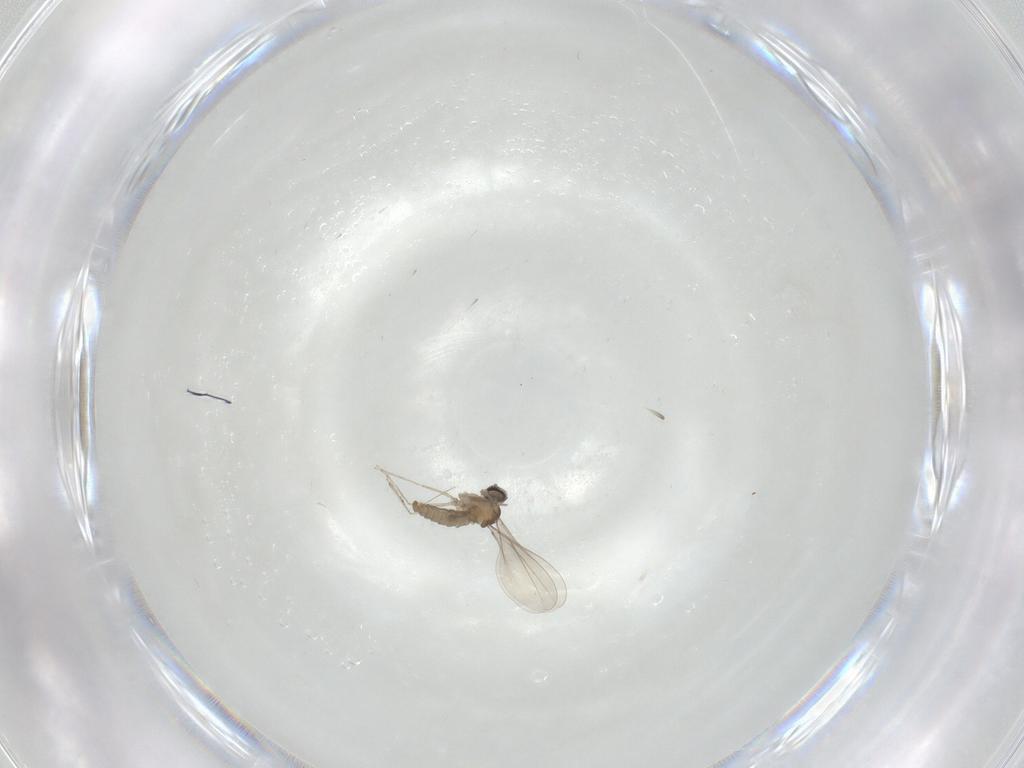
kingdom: Animalia
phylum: Arthropoda
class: Insecta
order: Diptera
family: Cecidomyiidae
